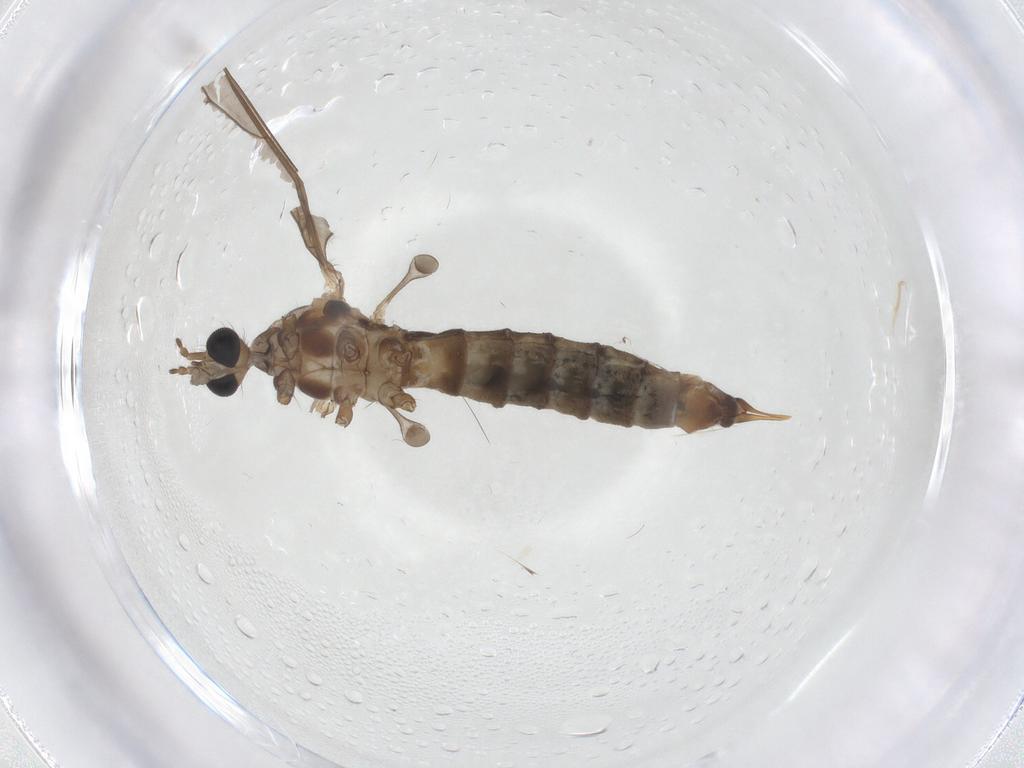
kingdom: Animalia
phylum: Arthropoda
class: Insecta
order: Diptera
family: Limoniidae
